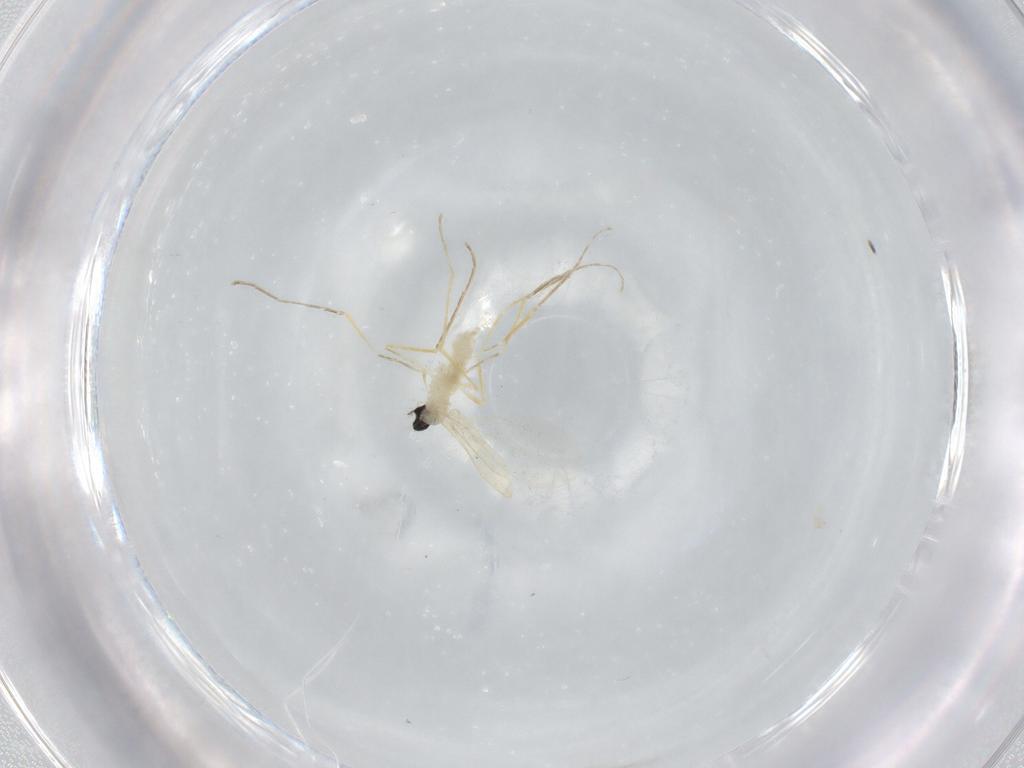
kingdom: Animalia
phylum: Arthropoda
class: Insecta
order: Diptera
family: Cecidomyiidae
